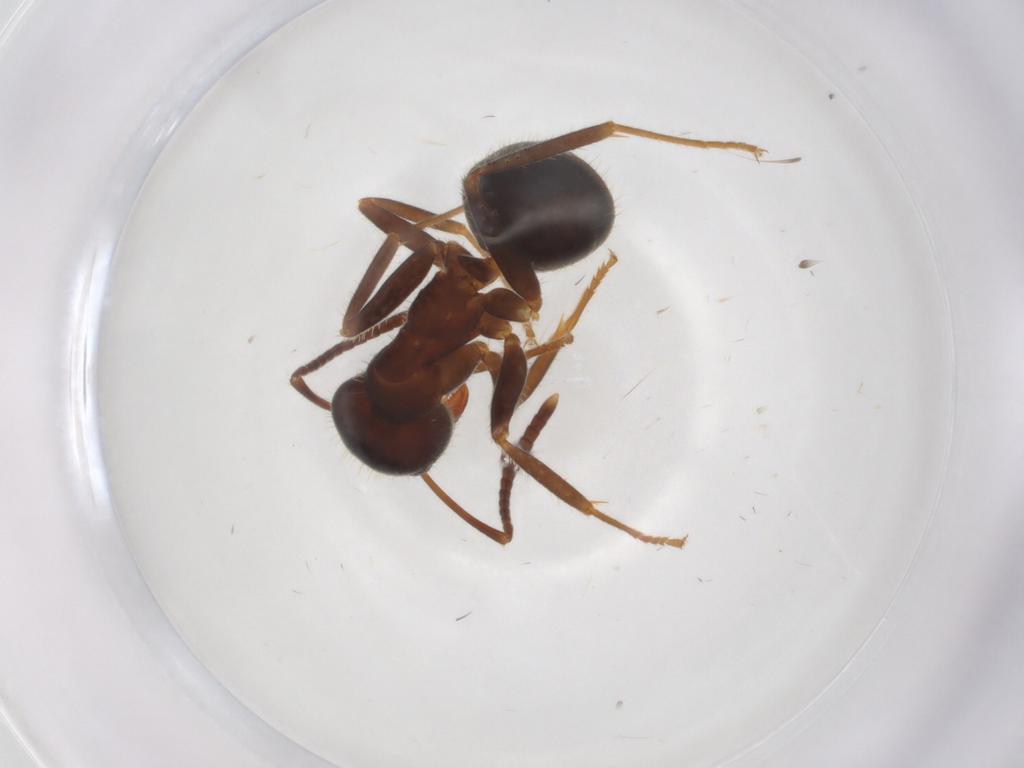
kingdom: Animalia
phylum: Arthropoda
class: Insecta
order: Hymenoptera
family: Formicidae
